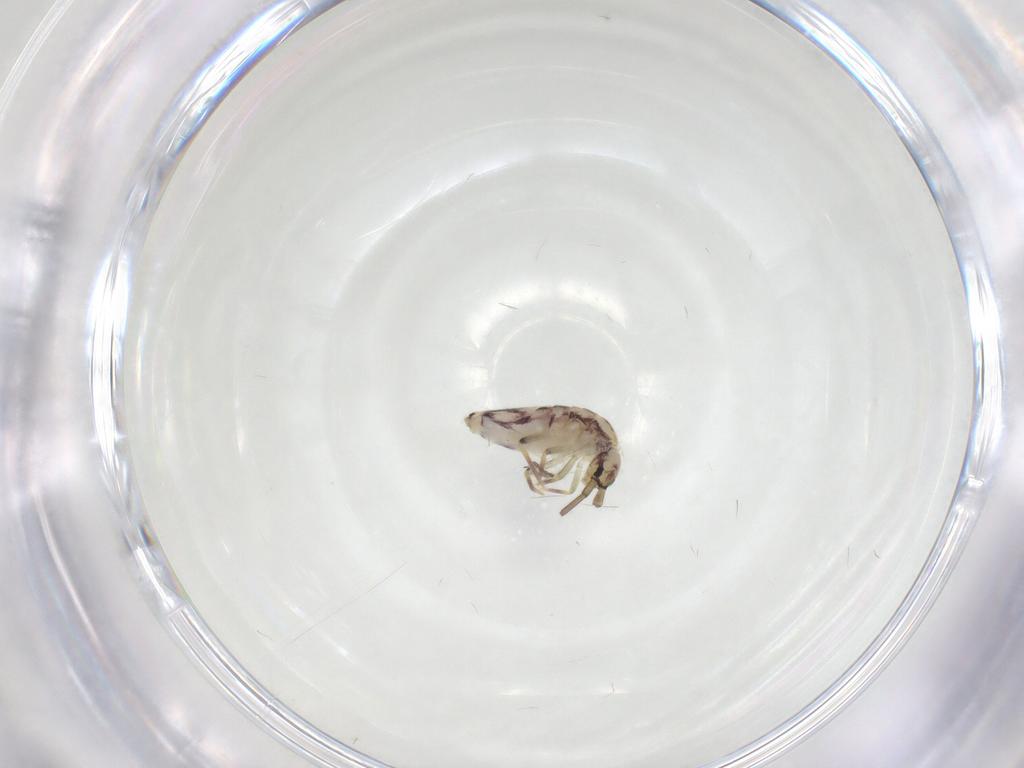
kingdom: Animalia
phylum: Arthropoda
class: Collembola
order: Entomobryomorpha
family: Entomobryidae
